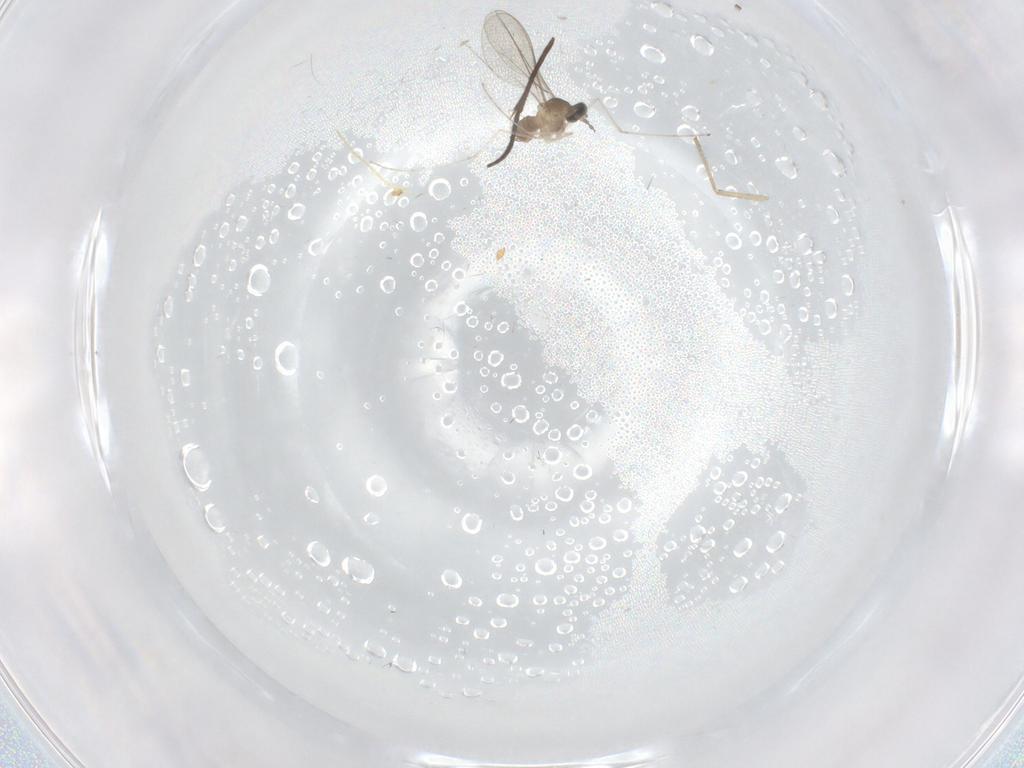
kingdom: Animalia
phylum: Arthropoda
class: Insecta
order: Diptera
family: Sciaridae
